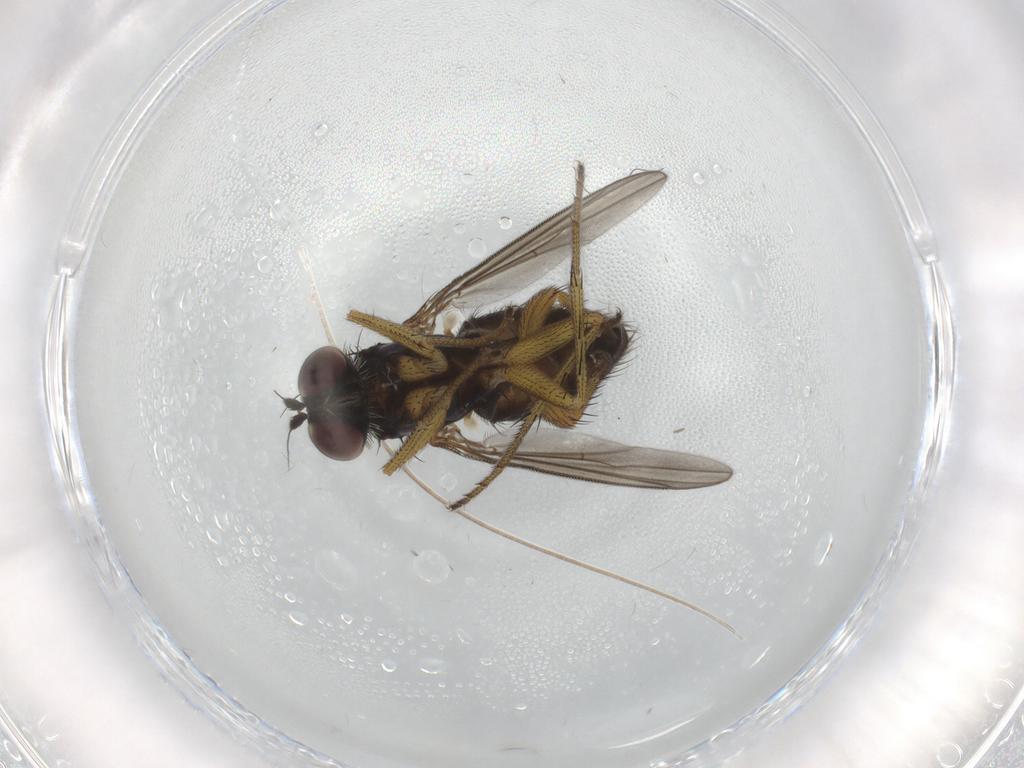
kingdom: Animalia
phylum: Arthropoda
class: Insecta
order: Diptera
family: Dolichopodidae
